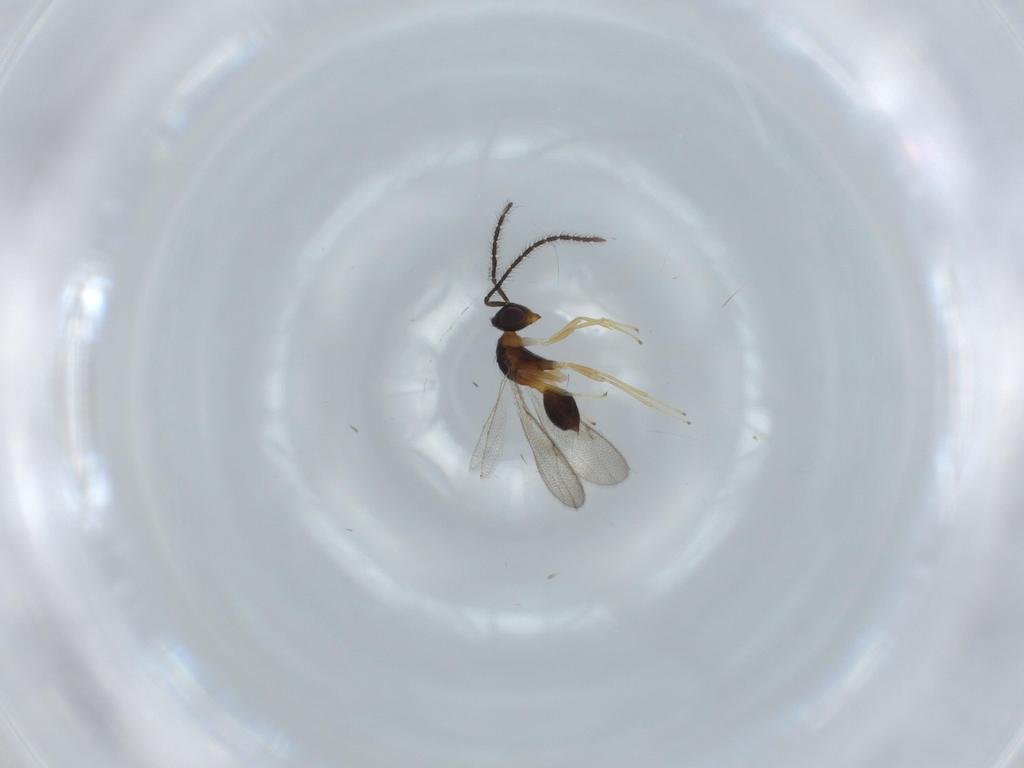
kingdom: Animalia
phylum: Arthropoda
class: Insecta
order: Hymenoptera
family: Diparidae
